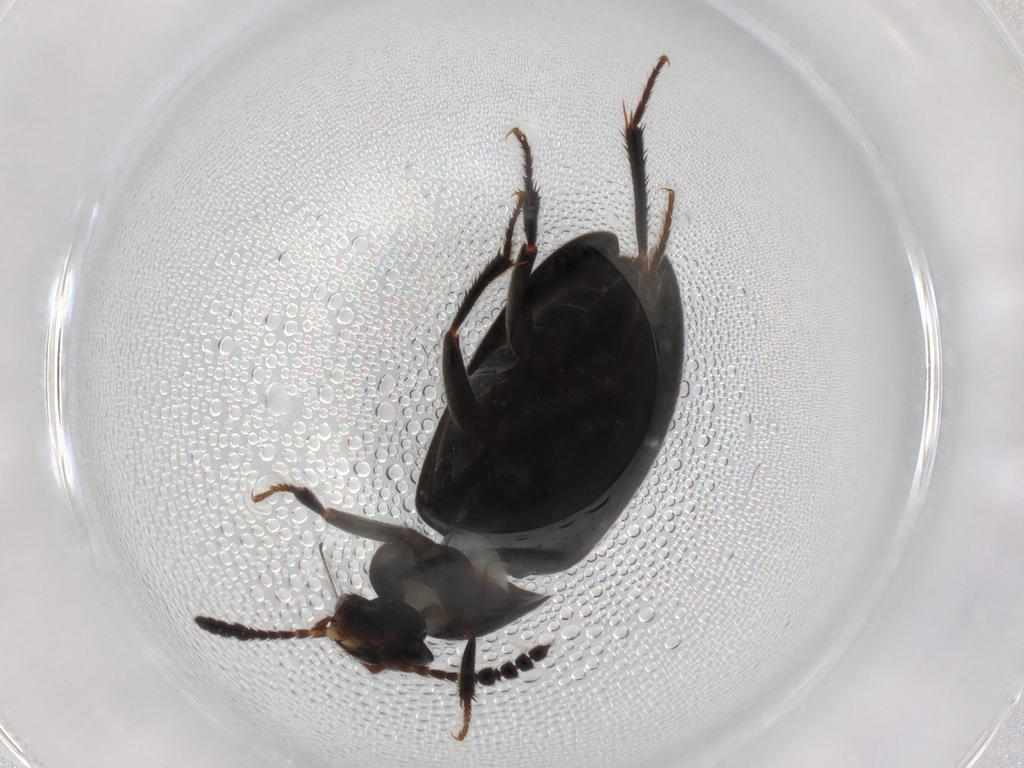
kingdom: Animalia
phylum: Arthropoda
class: Insecta
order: Coleoptera
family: Leiodidae
